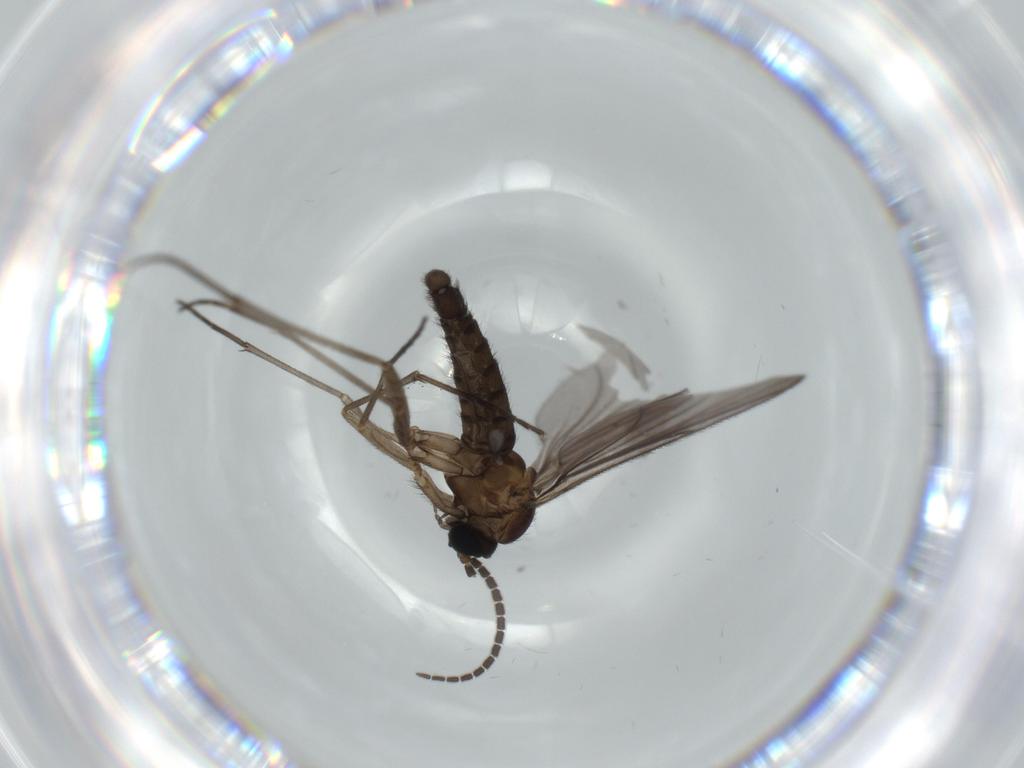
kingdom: Animalia
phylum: Arthropoda
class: Insecta
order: Diptera
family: Sciaridae
